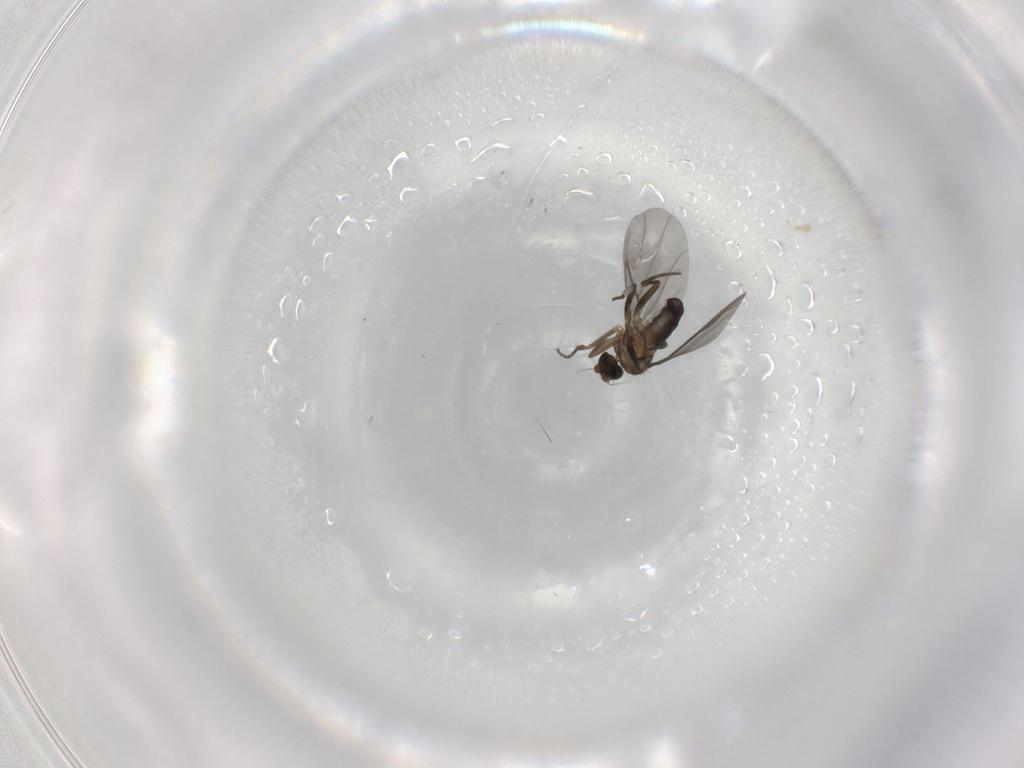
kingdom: Animalia
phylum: Arthropoda
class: Insecta
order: Diptera
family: Phoridae
